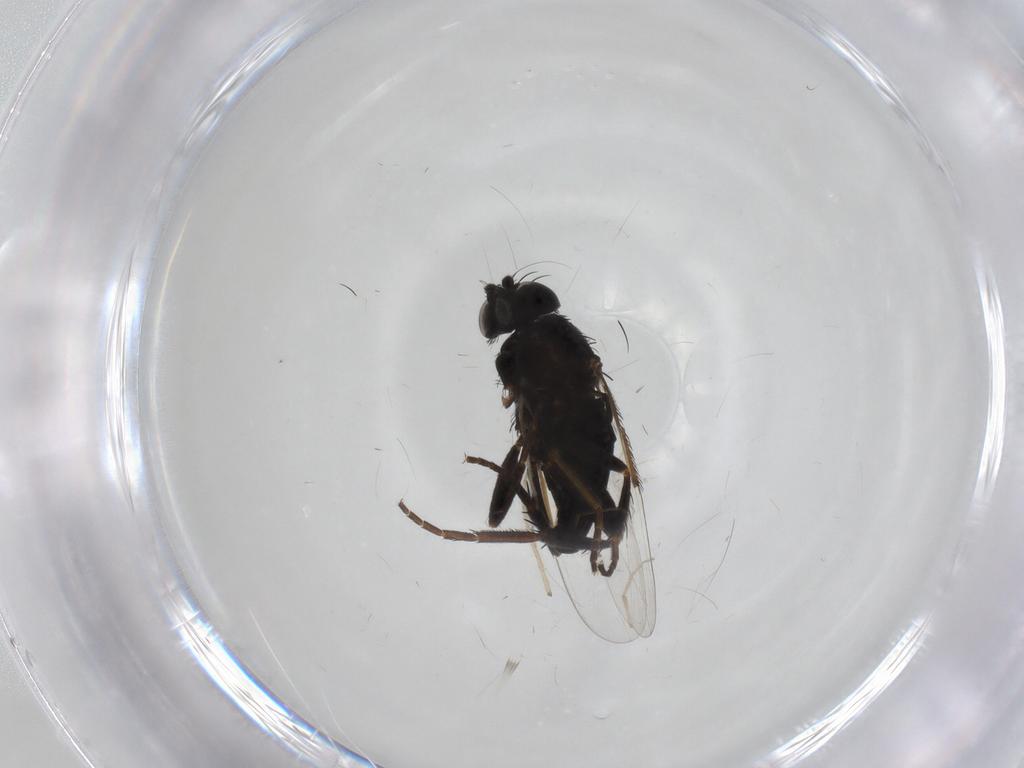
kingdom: Animalia
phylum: Arthropoda
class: Insecta
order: Diptera
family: Phoridae
